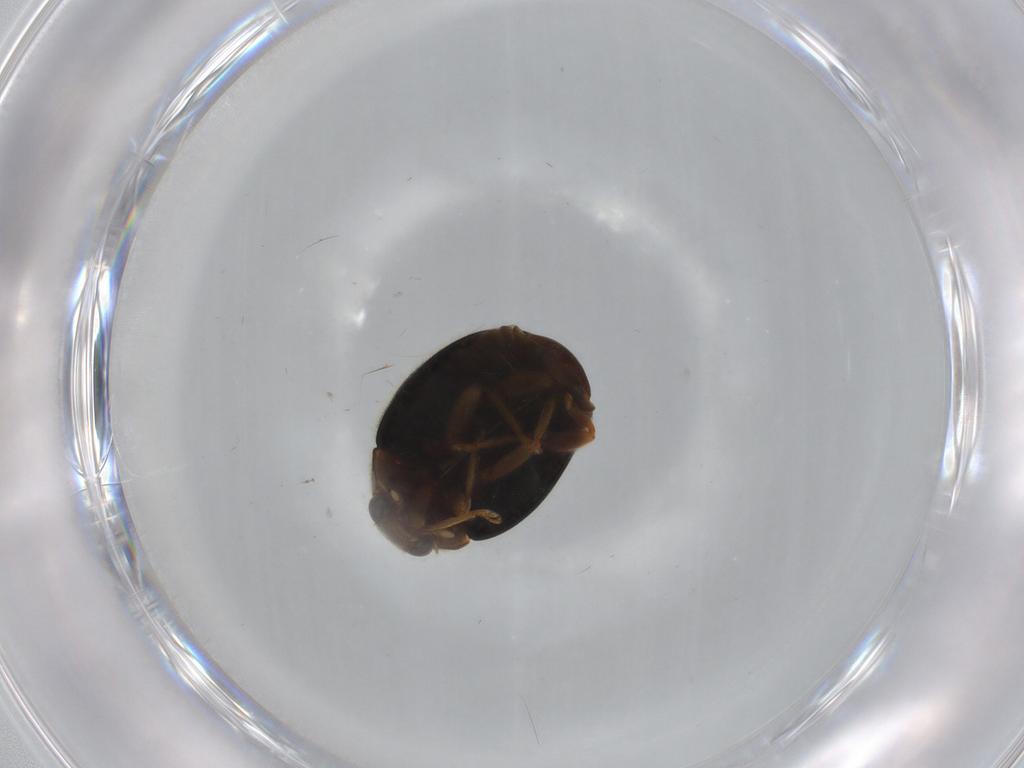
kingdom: Animalia
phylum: Arthropoda
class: Insecta
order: Coleoptera
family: Coccinellidae
